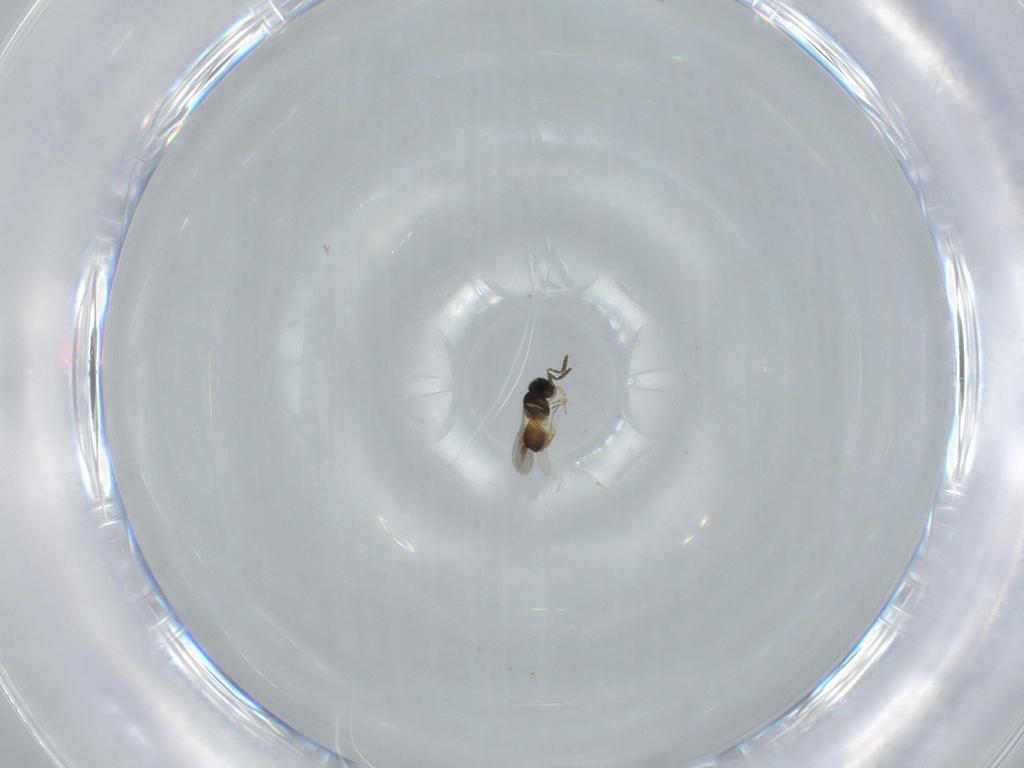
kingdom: Animalia
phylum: Arthropoda
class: Insecta
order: Hymenoptera
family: Scelionidae
